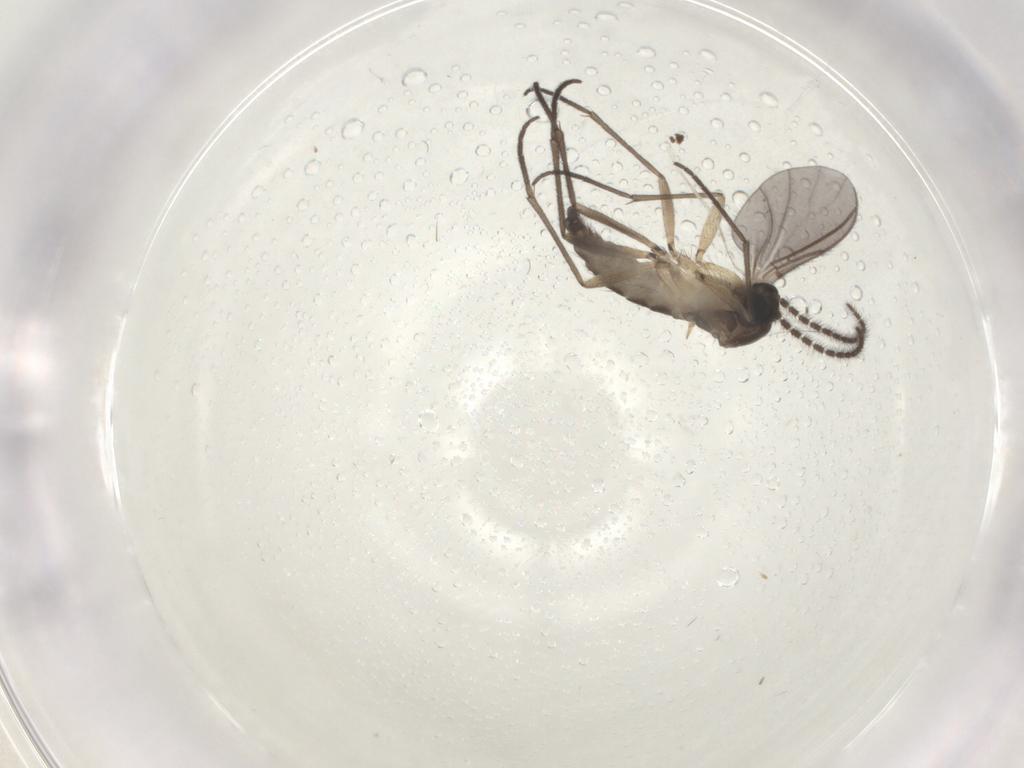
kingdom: Animalia
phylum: Arthropoda
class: Insecta
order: Diptera
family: Sciaridae
